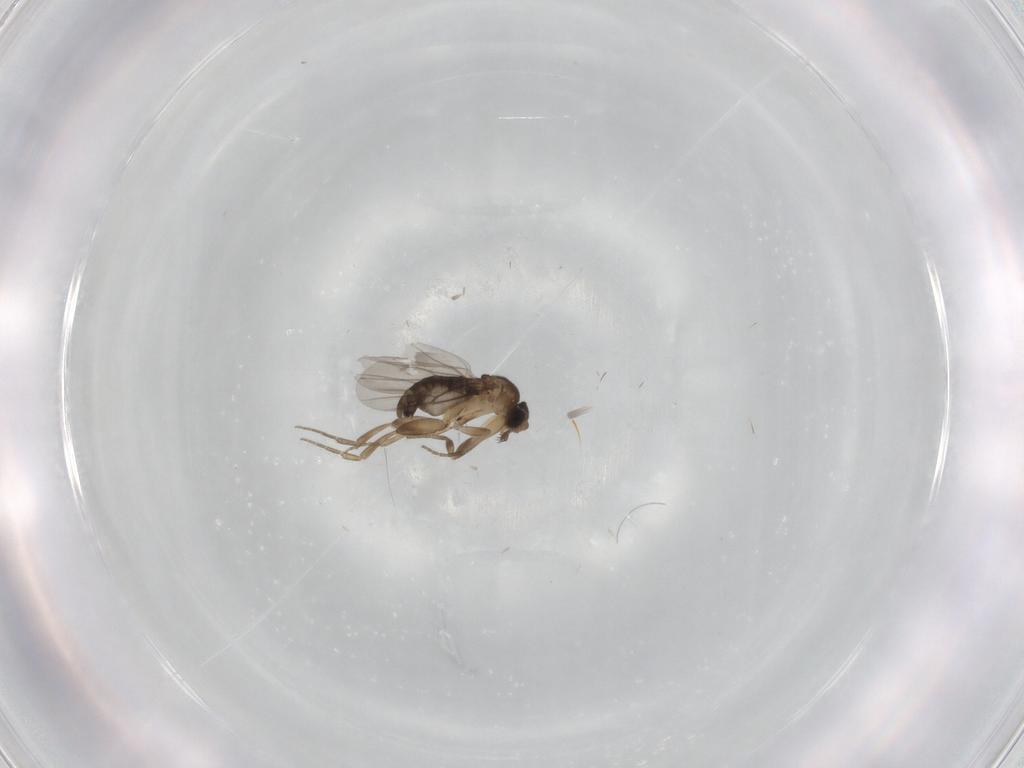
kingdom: Animalia
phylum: Arthropoda
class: Insecta
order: Diptera
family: Phoridae
